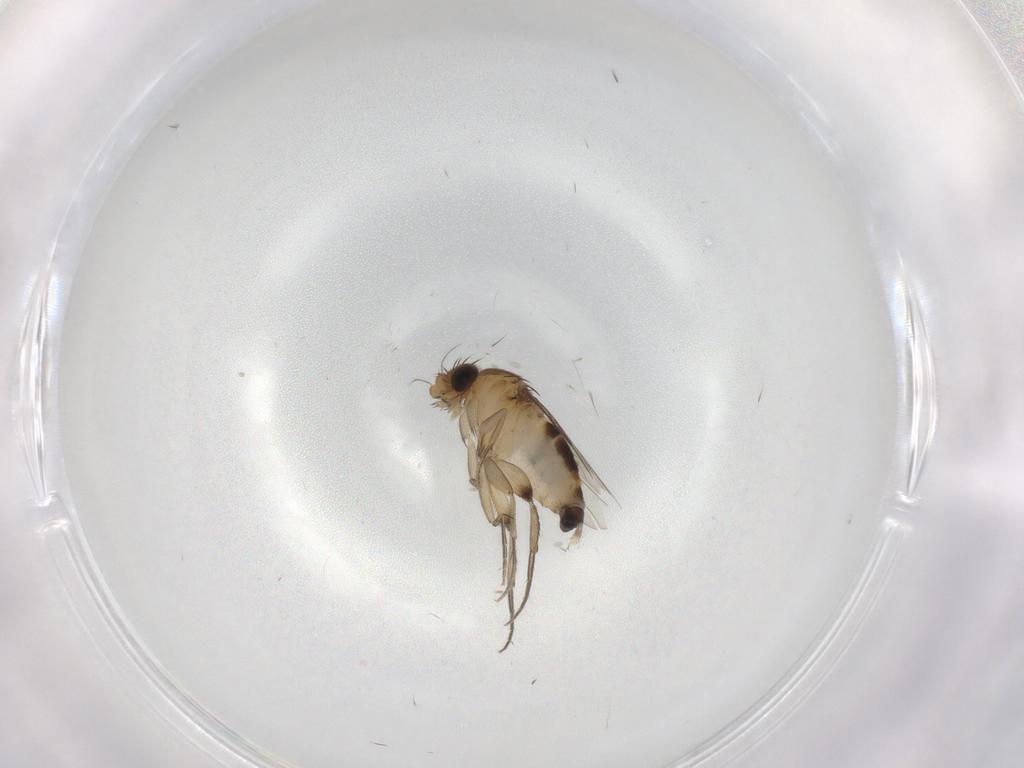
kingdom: Animalia
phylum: Arthropoda
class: Insecta
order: Diptera
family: Phoridae
